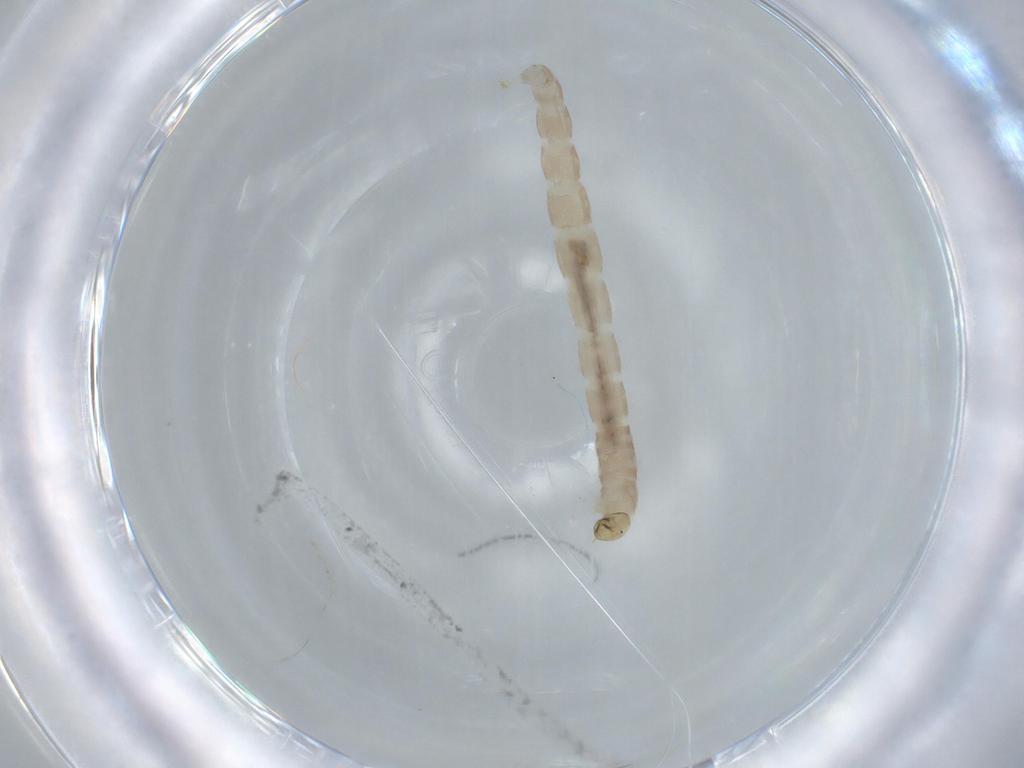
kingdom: Animalia
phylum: Arthropoda
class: Insecta
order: Diptera
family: Chironomidae
